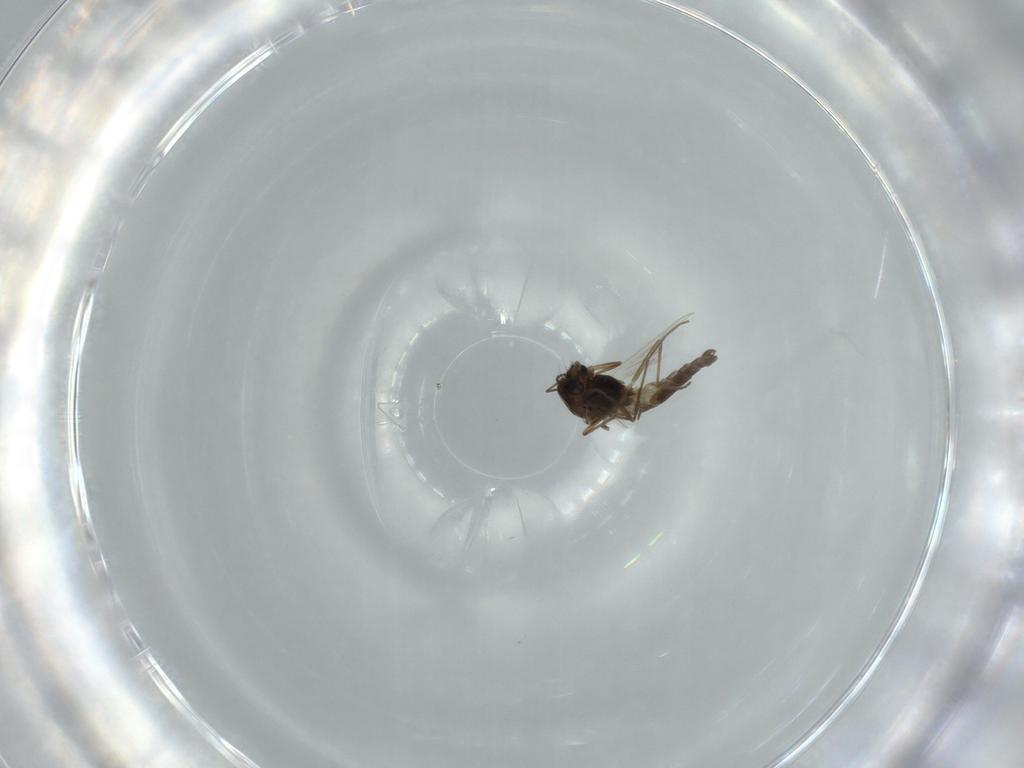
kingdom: Animalia
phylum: Arthropoda
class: Insecta
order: Diptera
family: Chironomidae
